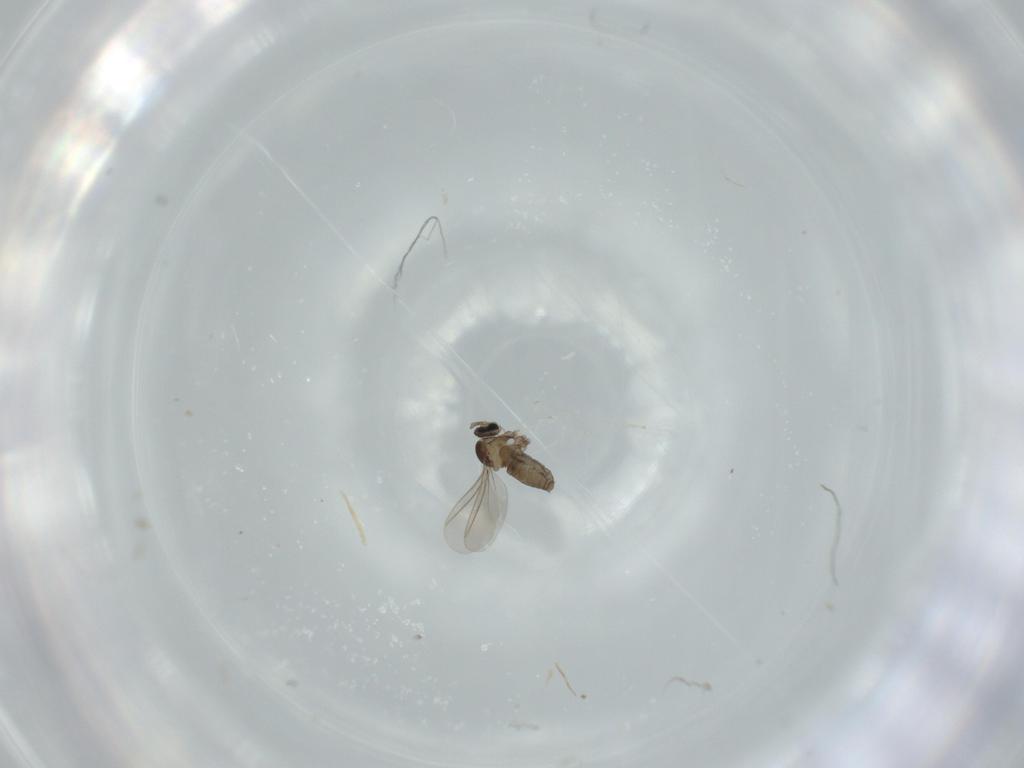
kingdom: Animalia
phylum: Arthropoda
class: Insecta
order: Diptera
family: Cecidomyiidae
